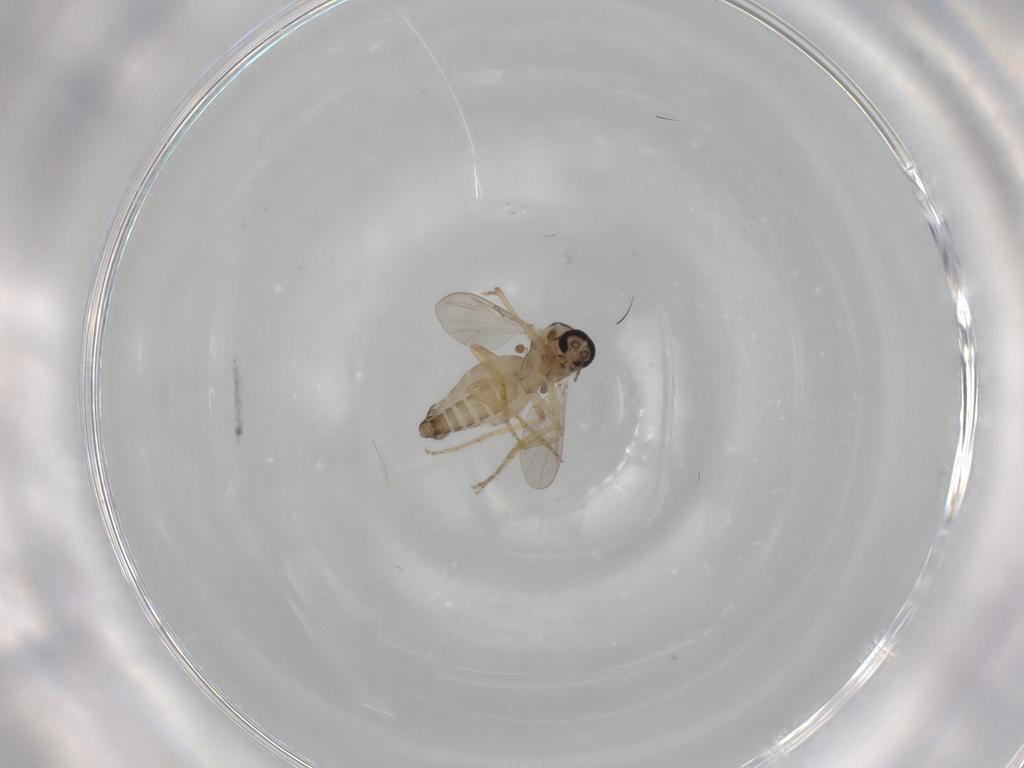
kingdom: Animalia
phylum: Arthropoda
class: Insecta
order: Diptera
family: Ceratopogonidae
